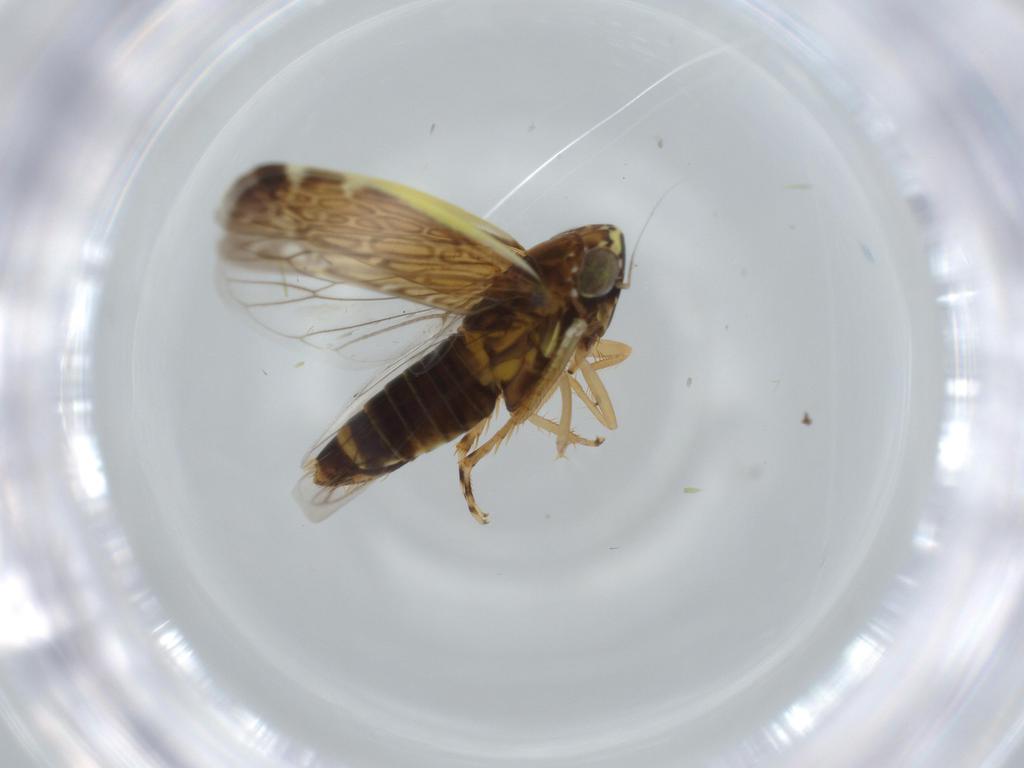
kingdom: Animalia
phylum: Arthropoda
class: Insecta
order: Hemiptera
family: Cicadellidae
